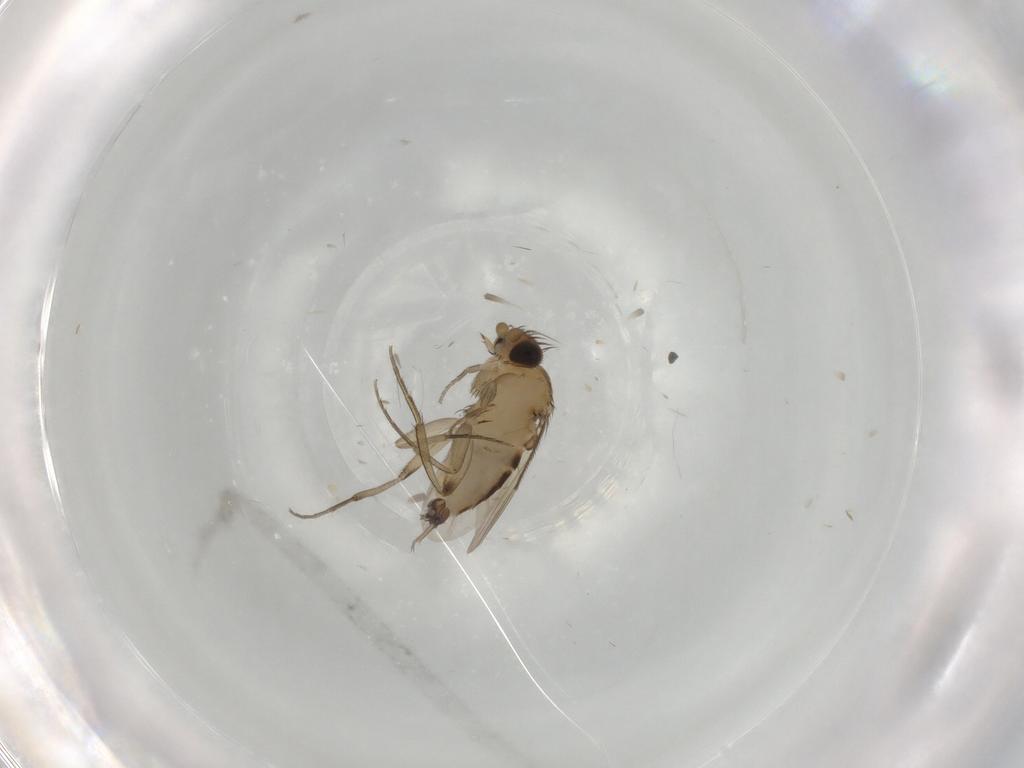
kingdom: Animalia
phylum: Arthropoda
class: Insecta
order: Diptera
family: Phoridae
